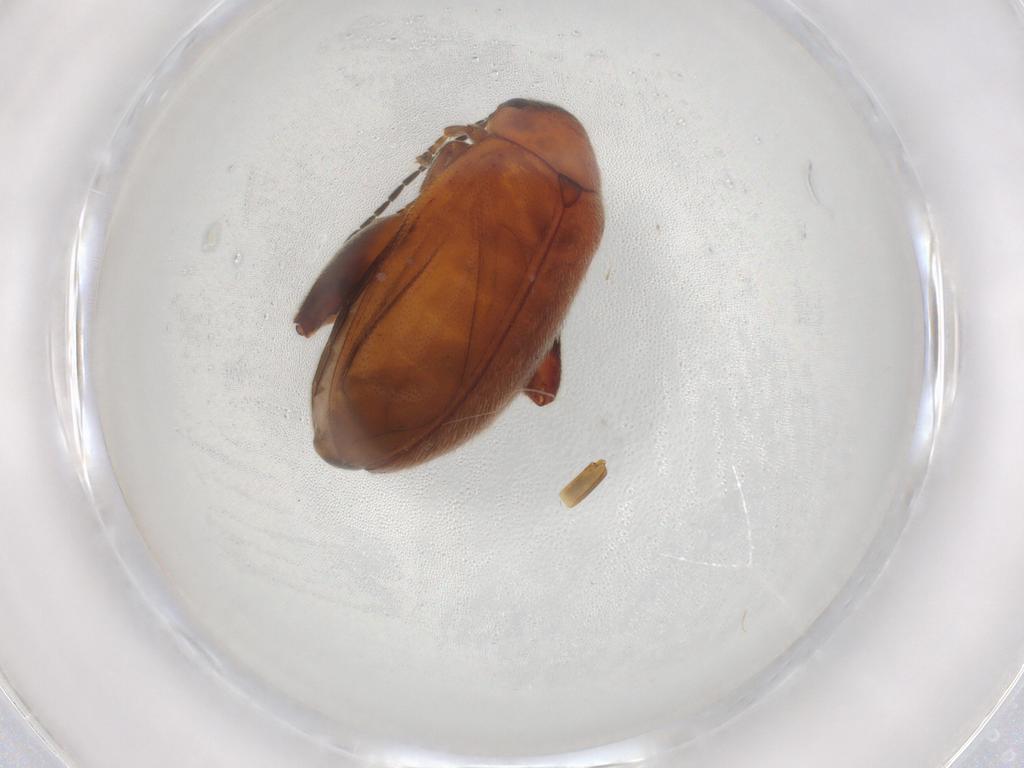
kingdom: Animalia
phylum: Arthropoda
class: Insecta
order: Coleoptera
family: Scirtidae
